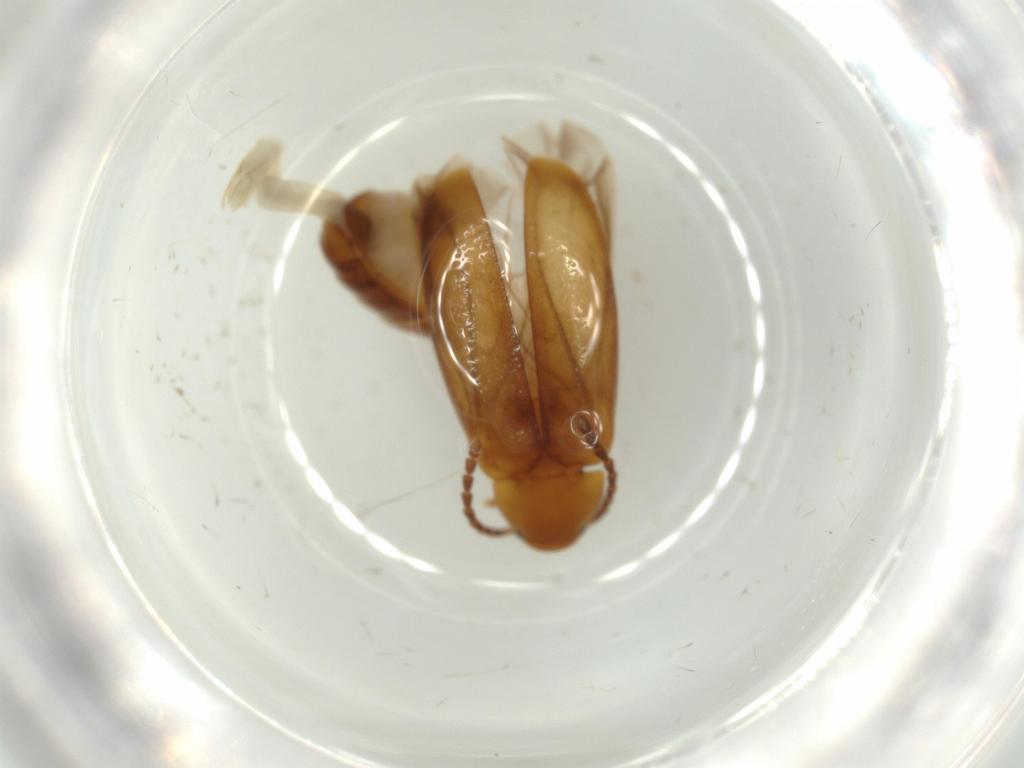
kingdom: Animalia
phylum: Arthropoda
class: Insecta
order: Coleoptera
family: Scraptiidae
